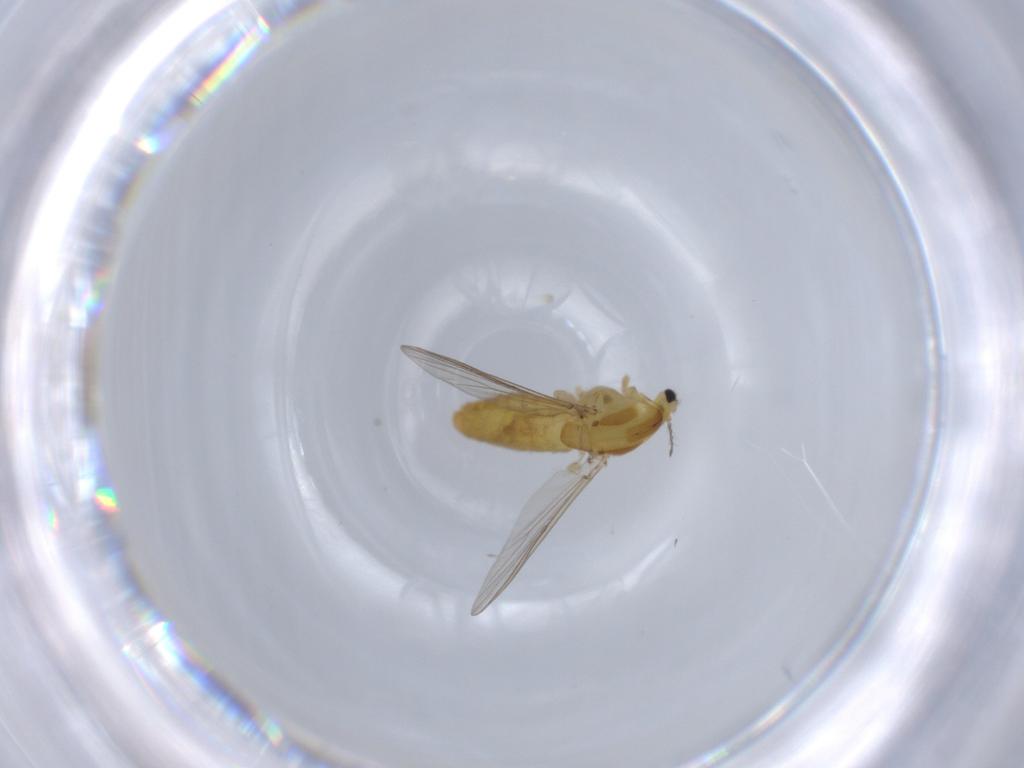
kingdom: Animalia
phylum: Arthropoda
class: Insecta
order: Diptera
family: Chironomidae
